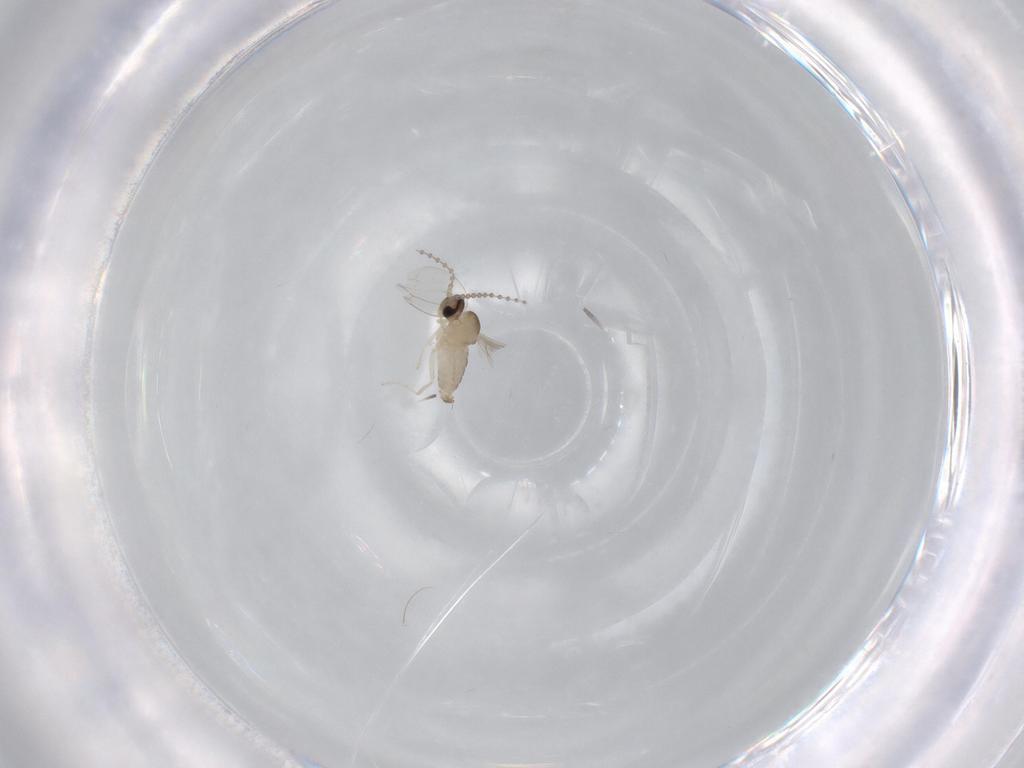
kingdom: Animalia
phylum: Arthropoda
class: Insecta
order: Diptera
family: Cecidomyiidae
